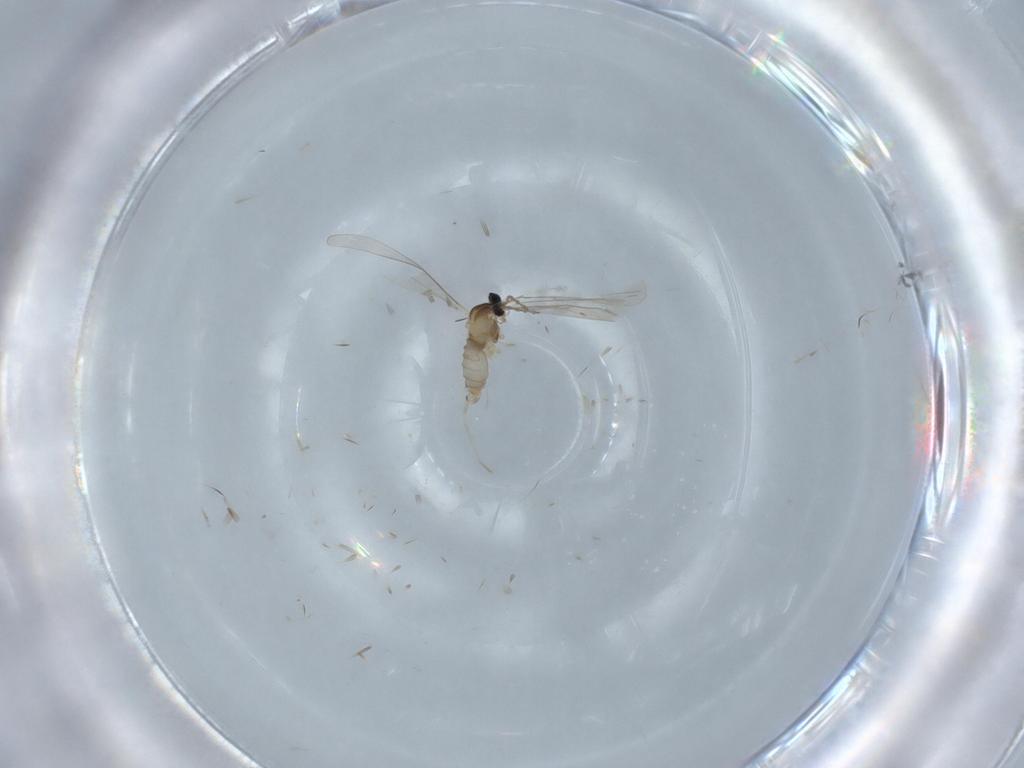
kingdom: Animalia
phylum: Arthropoda
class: Insecta
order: Diptera
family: Cecidomyiidae
